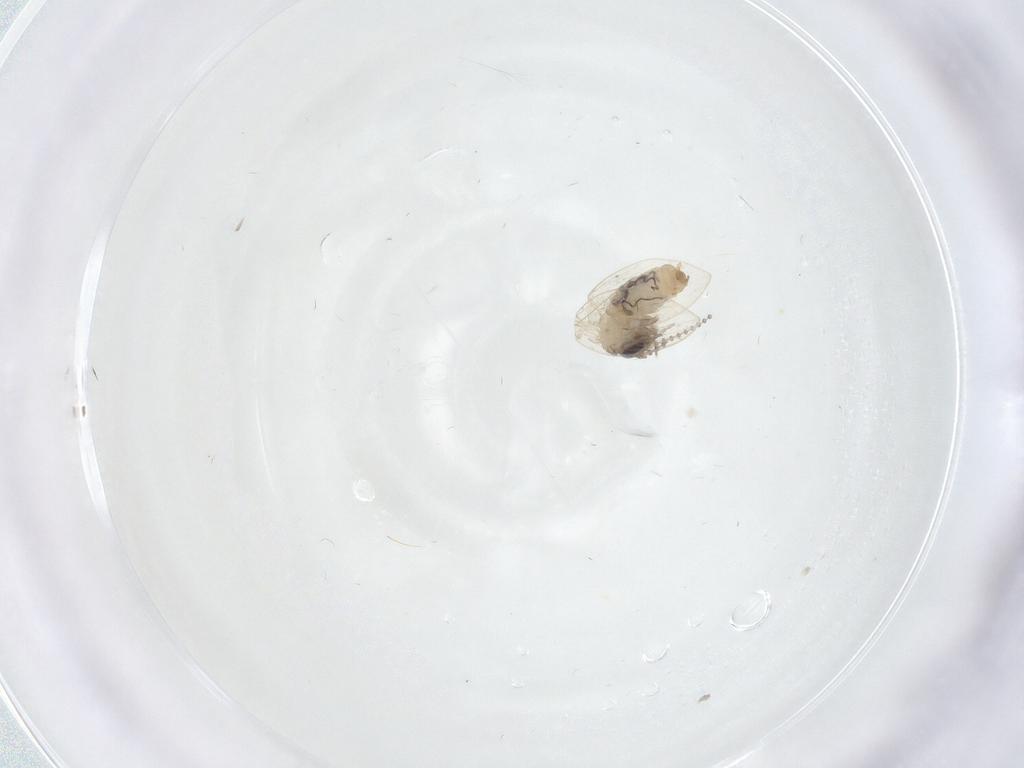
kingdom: Animalia
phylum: Arthropoda
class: Insecta
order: Diptera
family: Psychodidae
